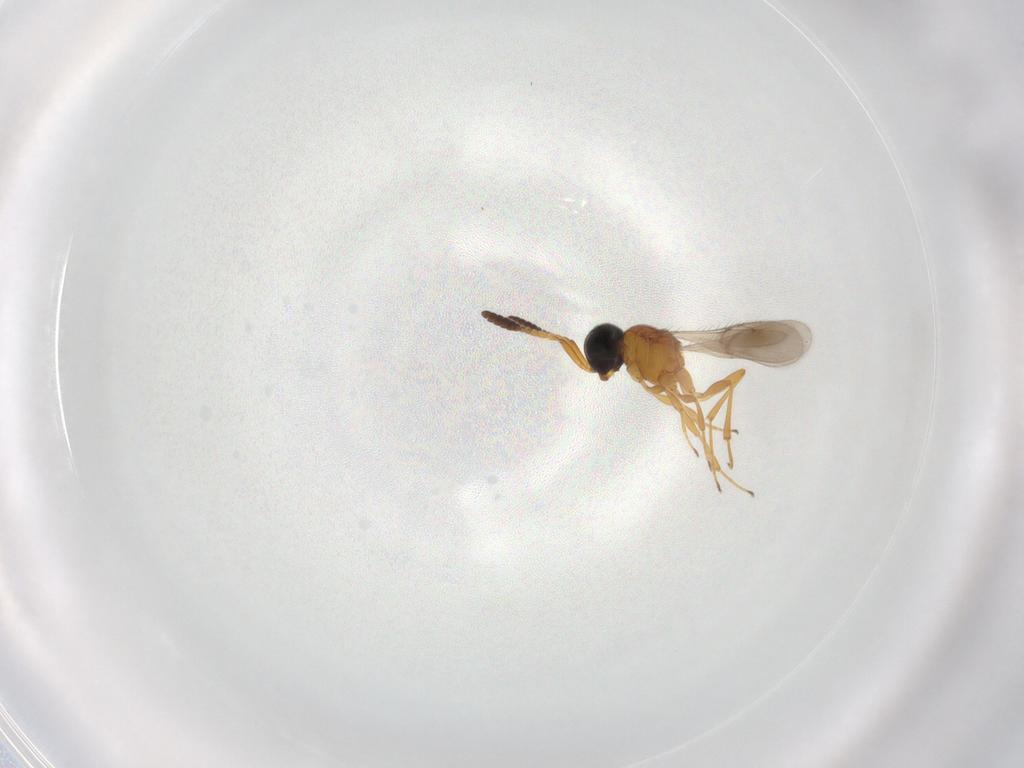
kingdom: Animalia
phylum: Arthropoda
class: Insecta
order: Hymenoptera
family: Scelionidae
